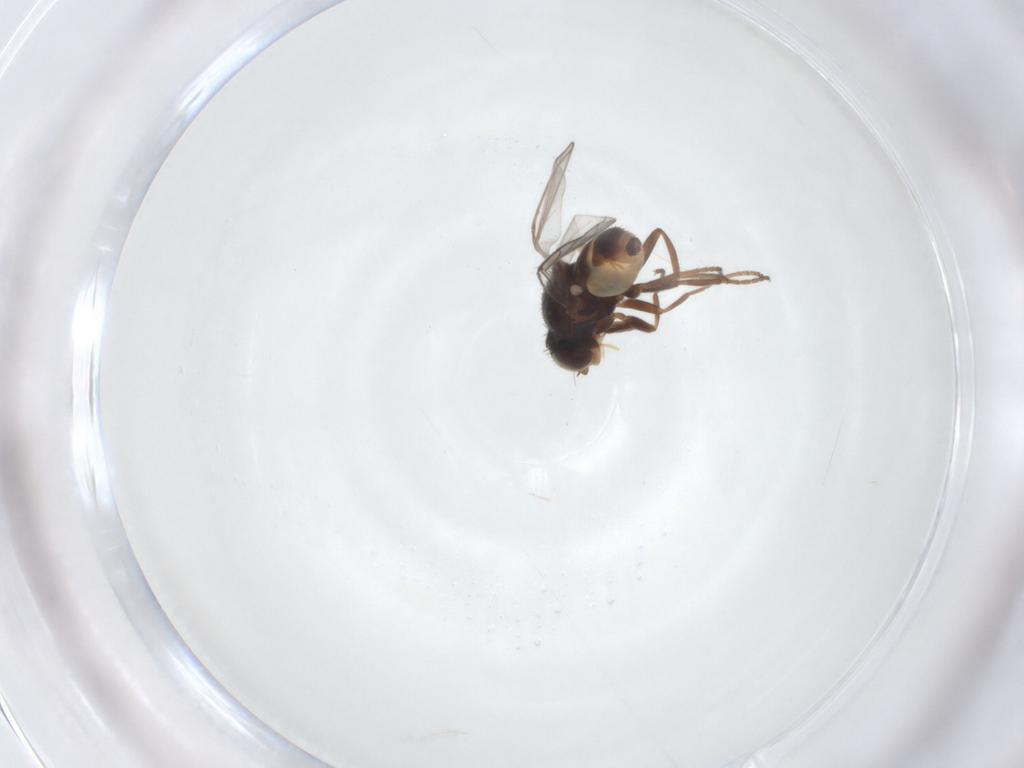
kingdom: Animalia
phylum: Arthropoda
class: Insecta
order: Diptera
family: Chloropidae
